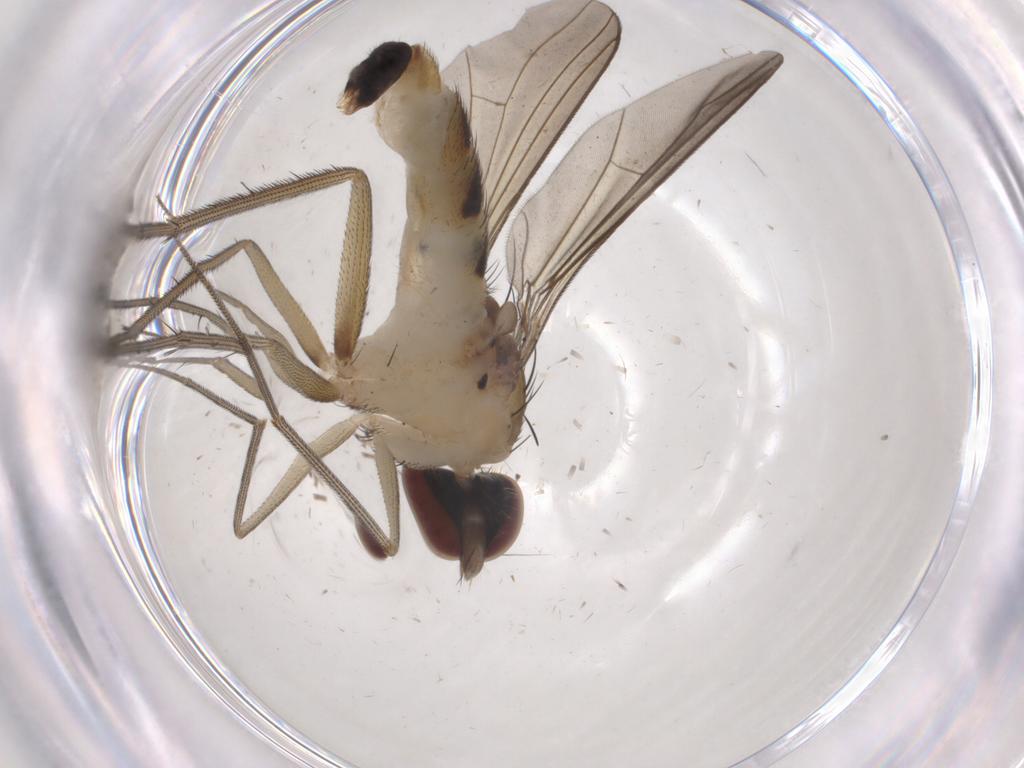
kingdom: Animalia
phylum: Arthropoda
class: Insecta
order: Diptera
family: Dolichopodidae
